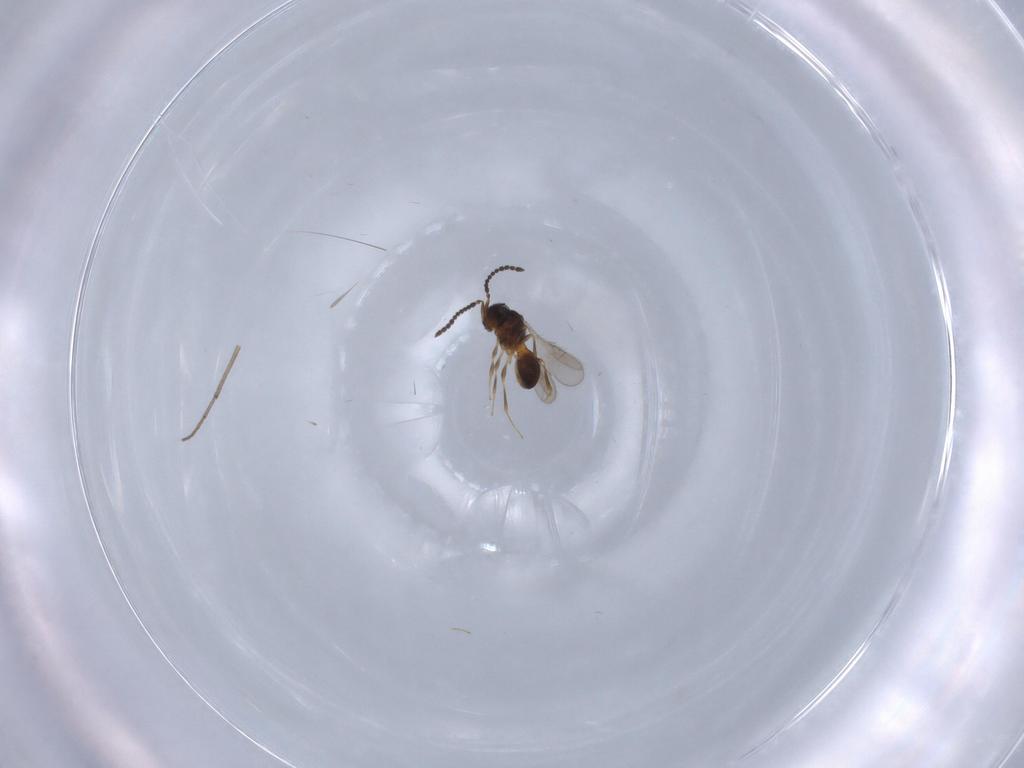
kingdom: Animalia
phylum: Arthropoda
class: Insecta
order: Hymenoptera
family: Scelionidae
